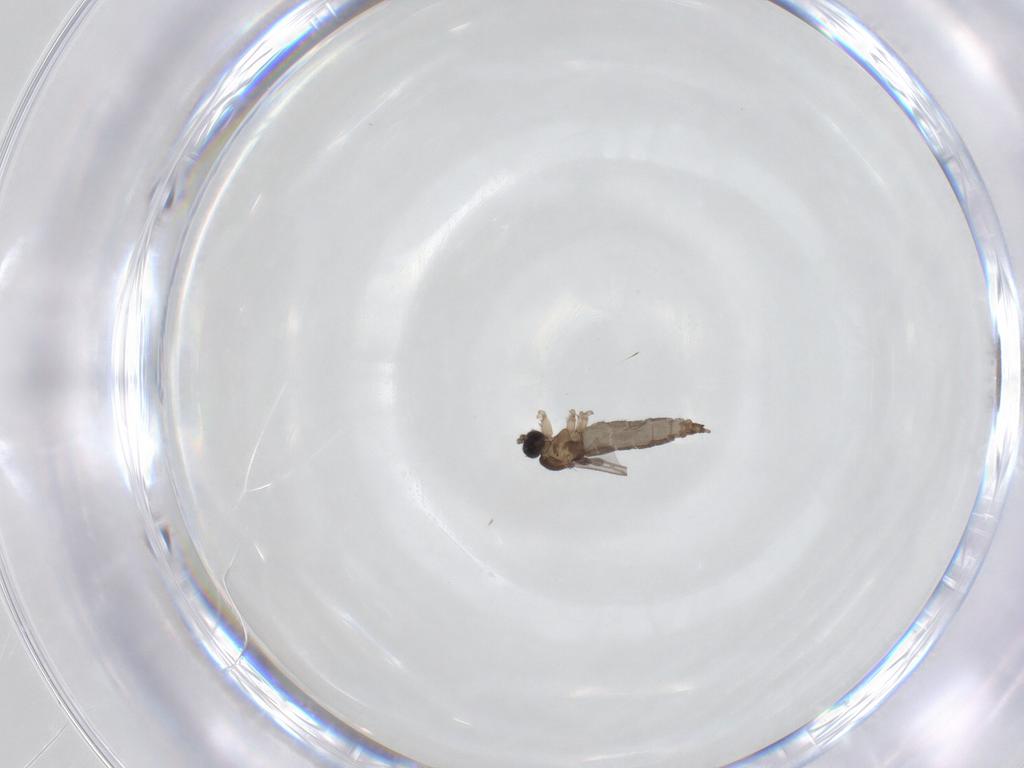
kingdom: Animalia
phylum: Arthropoda
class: Insecta
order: Diptera
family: Sciaridae
